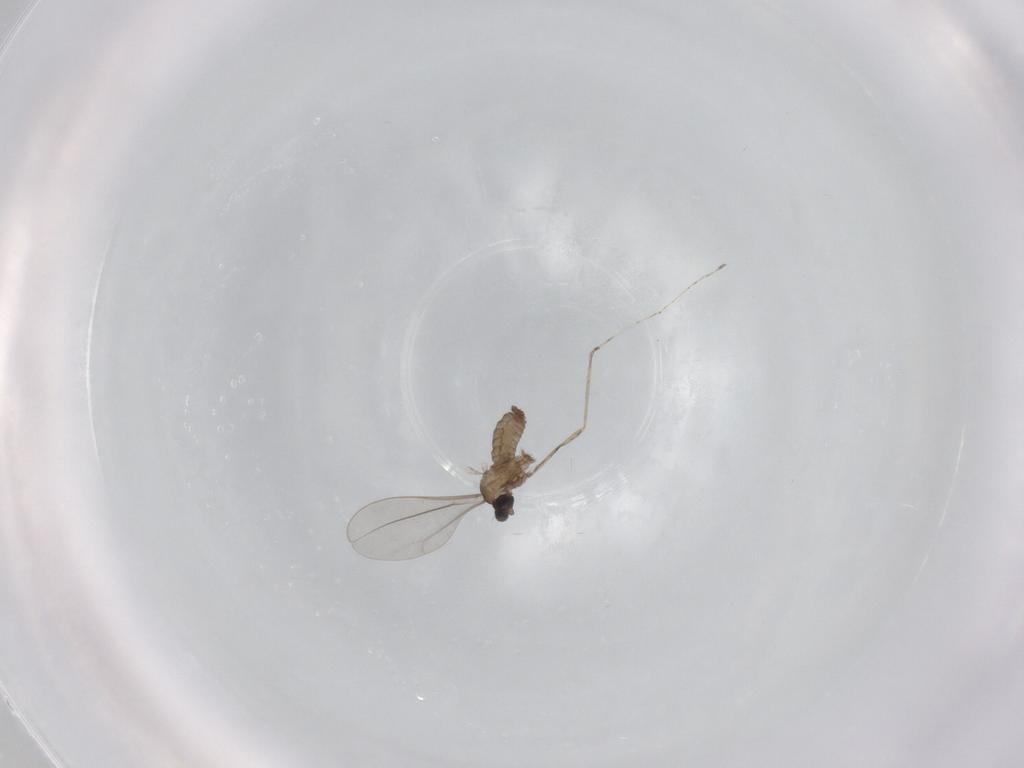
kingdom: Animalia
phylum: Arthropoda
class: Insecta
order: Diptera
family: Cecidomyiidae
